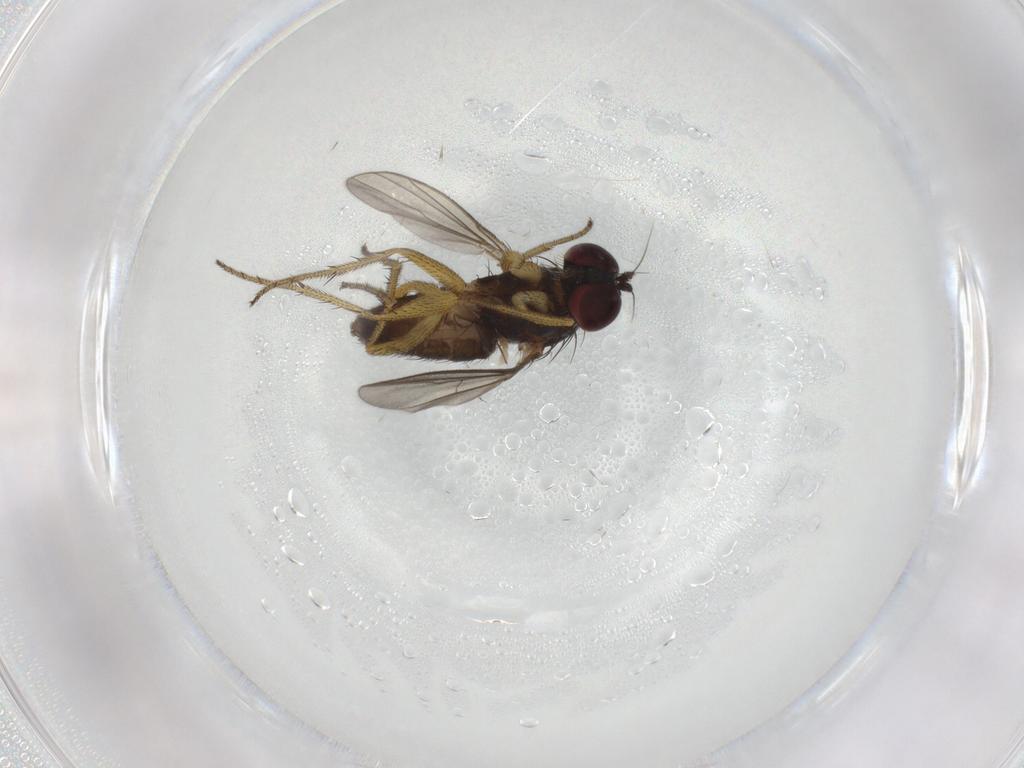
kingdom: Animalia
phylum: Arthropoda
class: Insecta
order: Diptera
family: Dolichopodidae
